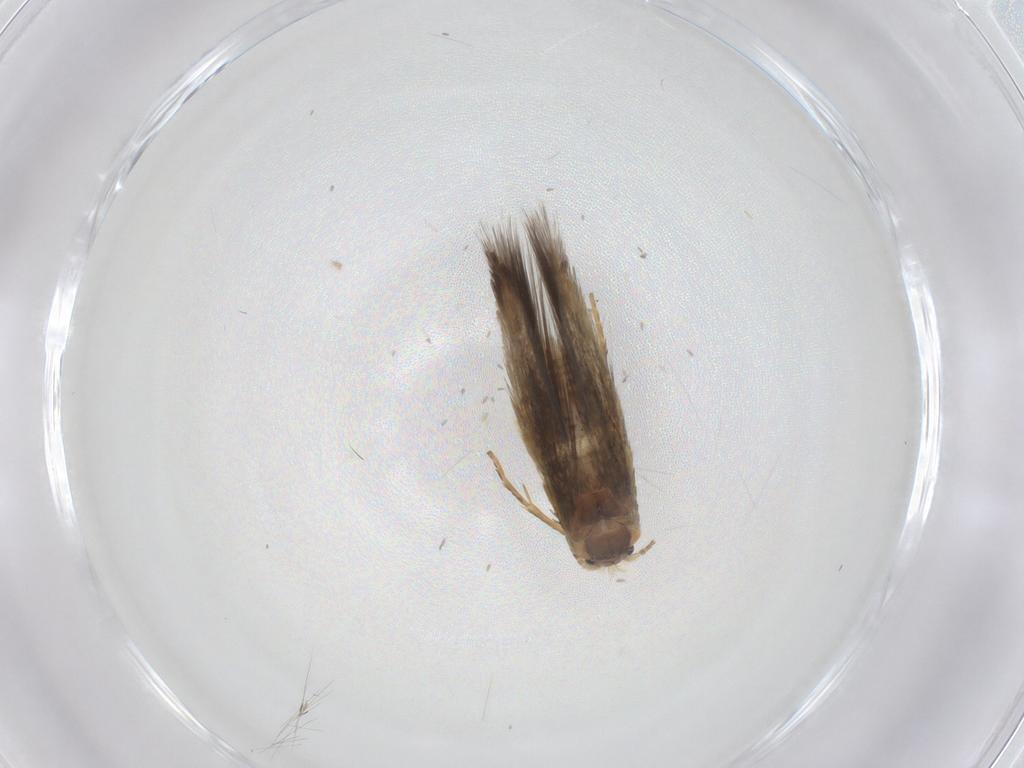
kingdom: Animalia
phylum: Arthropoda
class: Insecta
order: Lepidoptera
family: Nepticulidae
